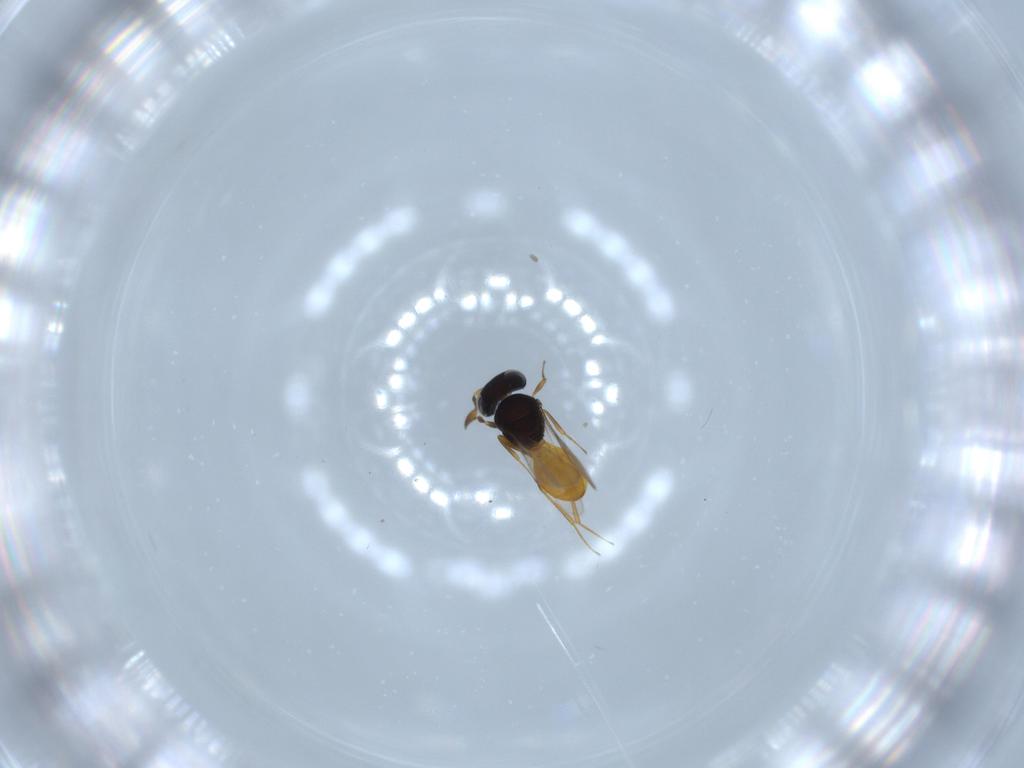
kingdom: Animalia
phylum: Arthropoda
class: Insecta
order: Hymenoptera
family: Scelionidae
